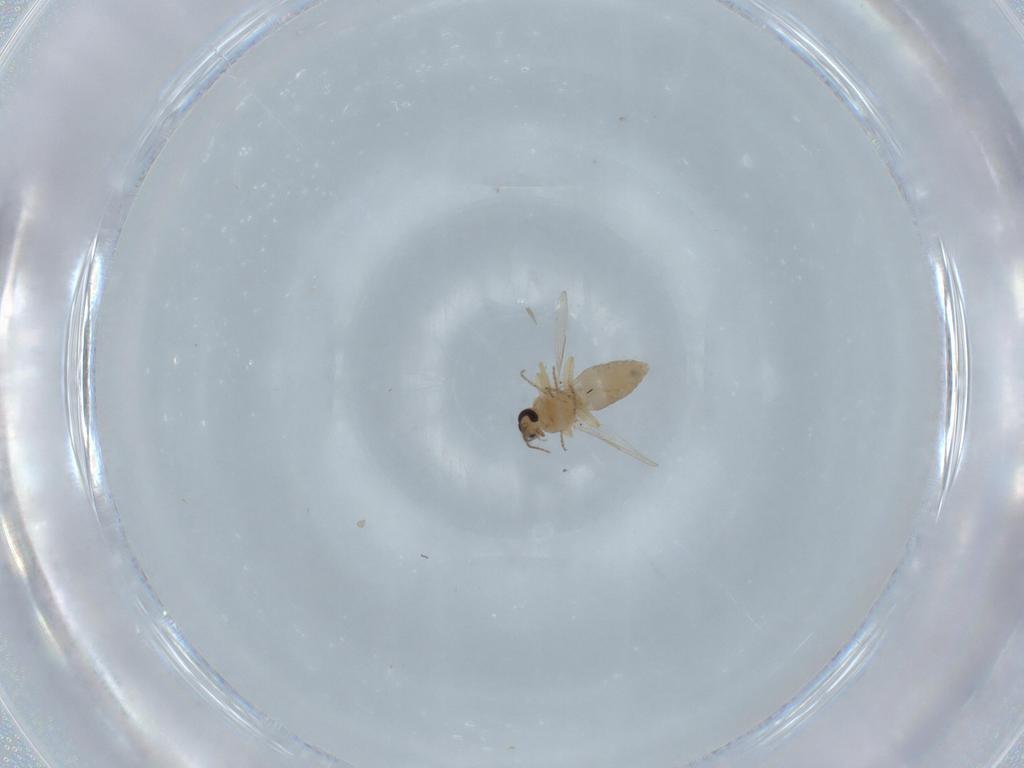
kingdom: Animalia
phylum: Arthropoda
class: Insecta
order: Diptera
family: Ceratopogonidae
